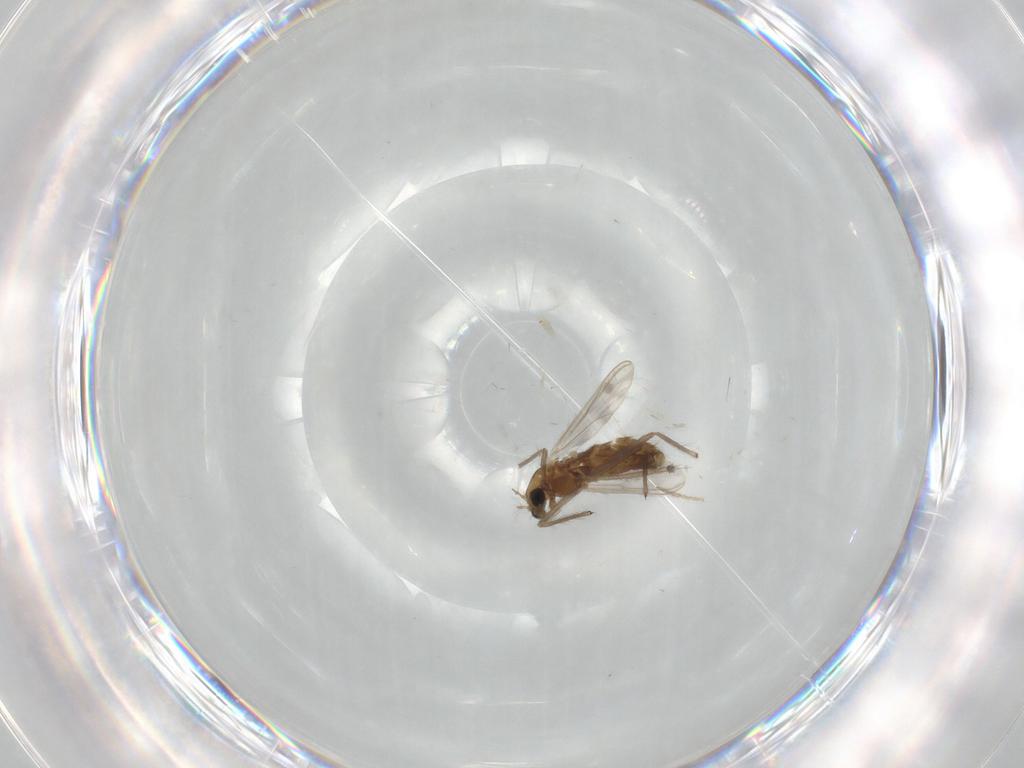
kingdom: Animalia
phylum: Arthropoda
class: Insecta
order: Diptera
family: Chironomidae
